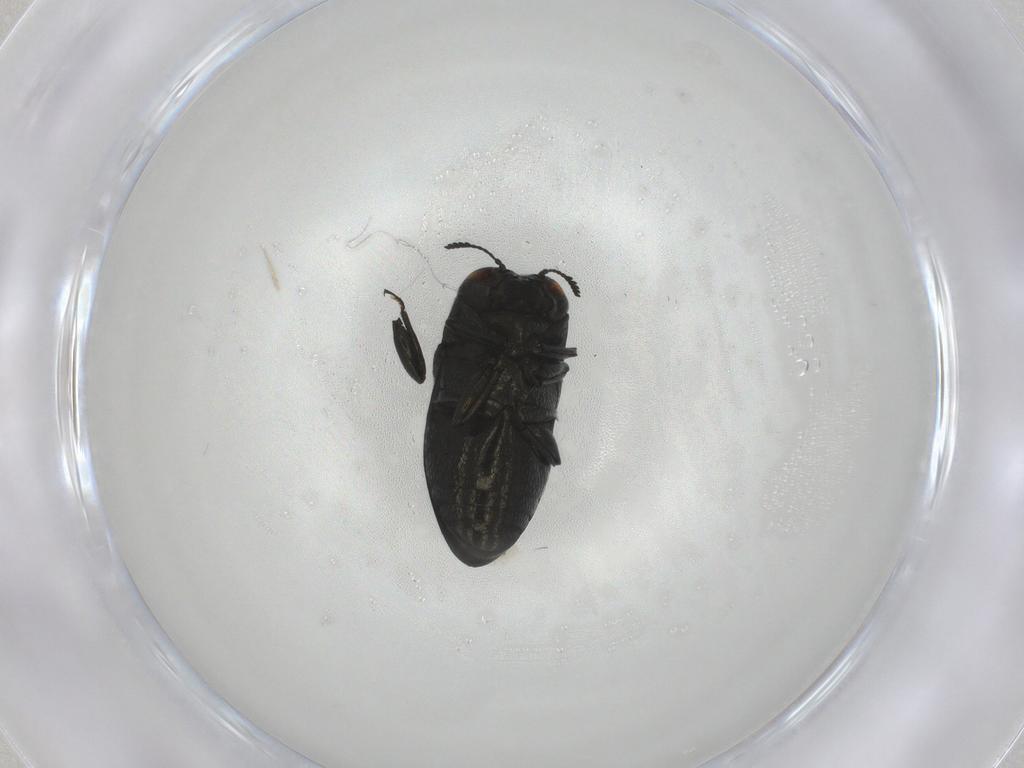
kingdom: Animalia
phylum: Arthropoda
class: Insecta
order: Coleoptera
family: Buprestidae
